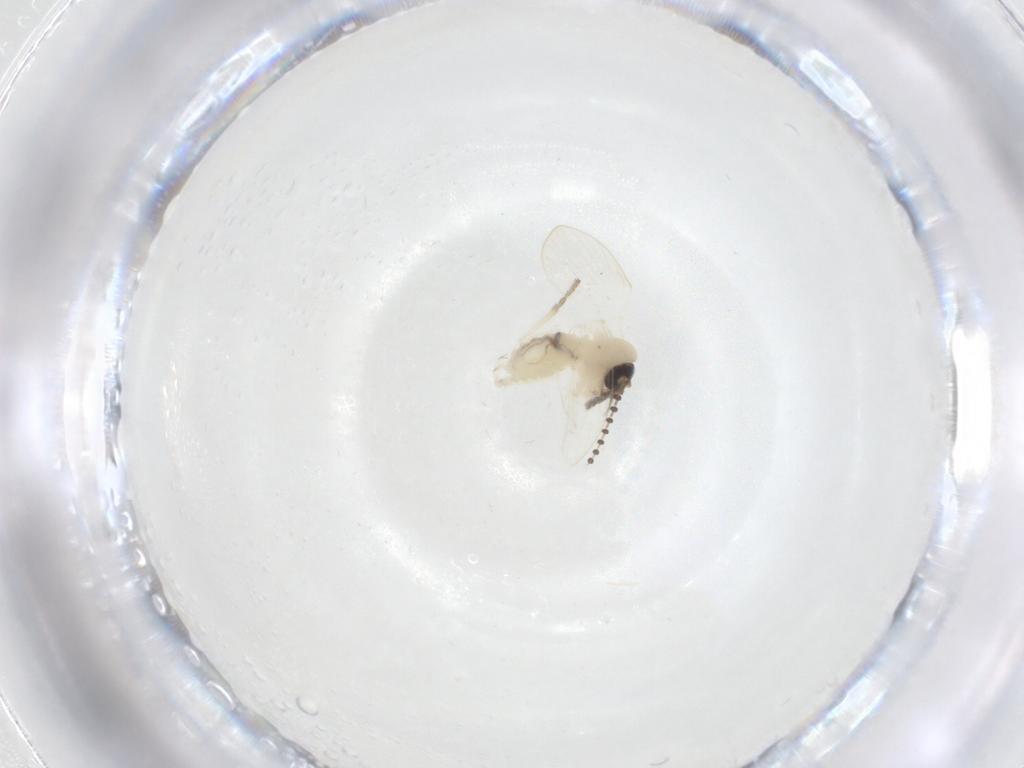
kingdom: Animalia
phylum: Arthropoda
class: Insecta
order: Diptera
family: Psychodidae
